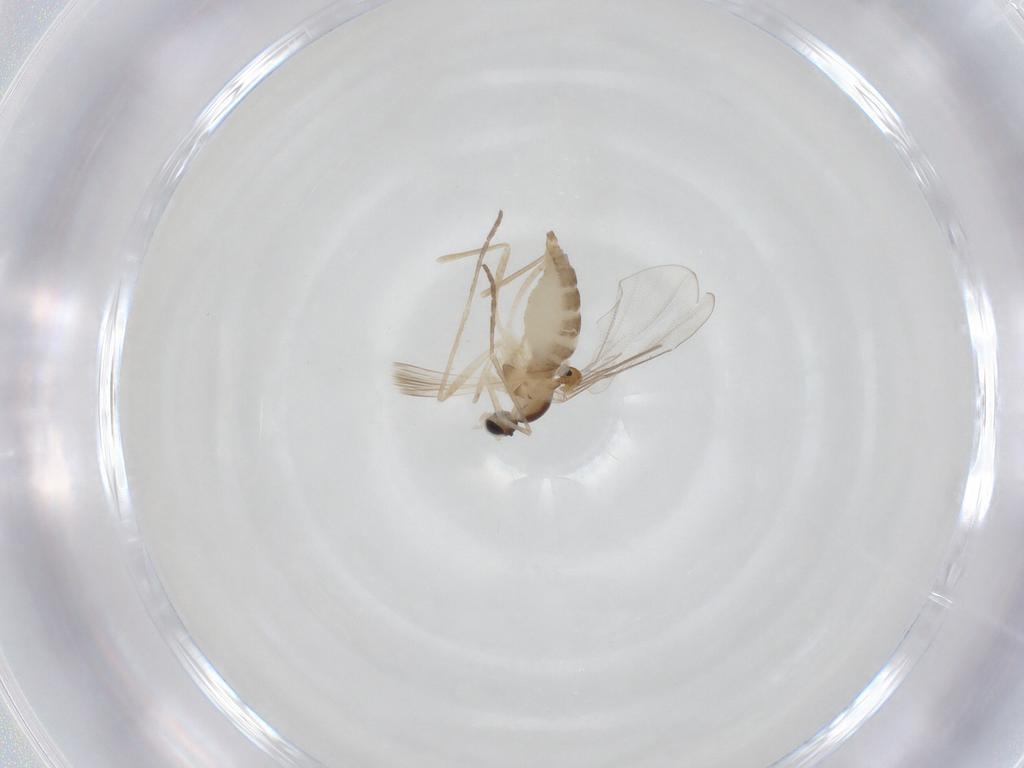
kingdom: Animalia
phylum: Arthropoda
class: Insecta
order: Diptera
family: Cecidomyiidae
